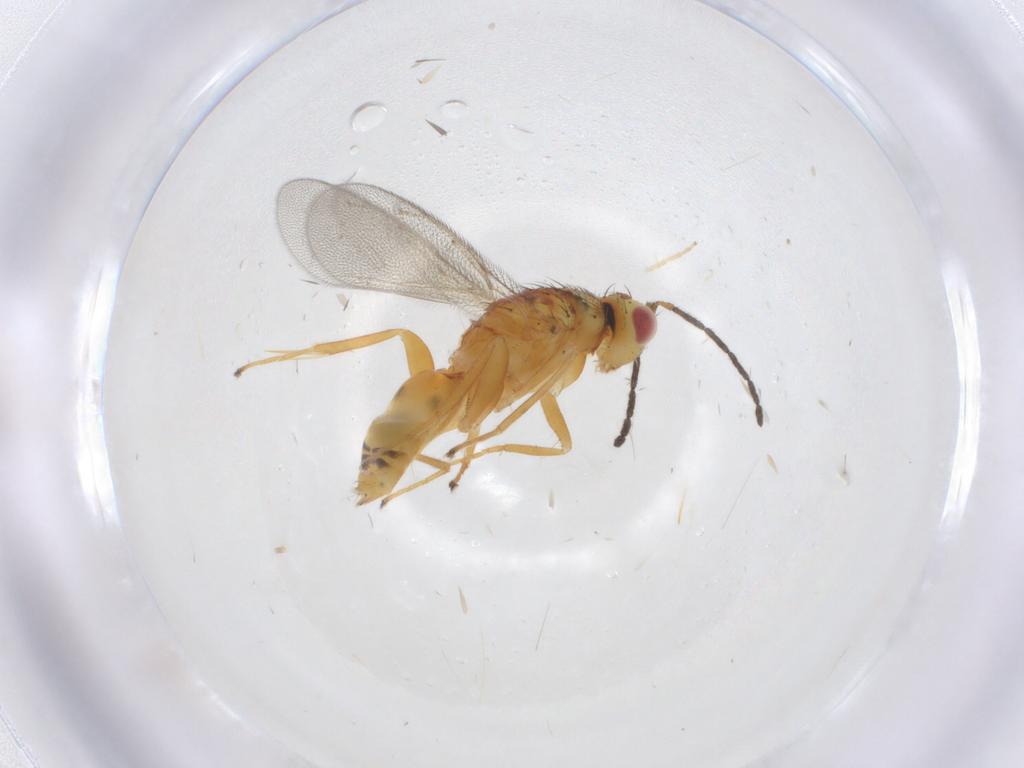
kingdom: Animalia
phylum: Arthropoda
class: Insecta
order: Hymenoptera
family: Eulophidae
